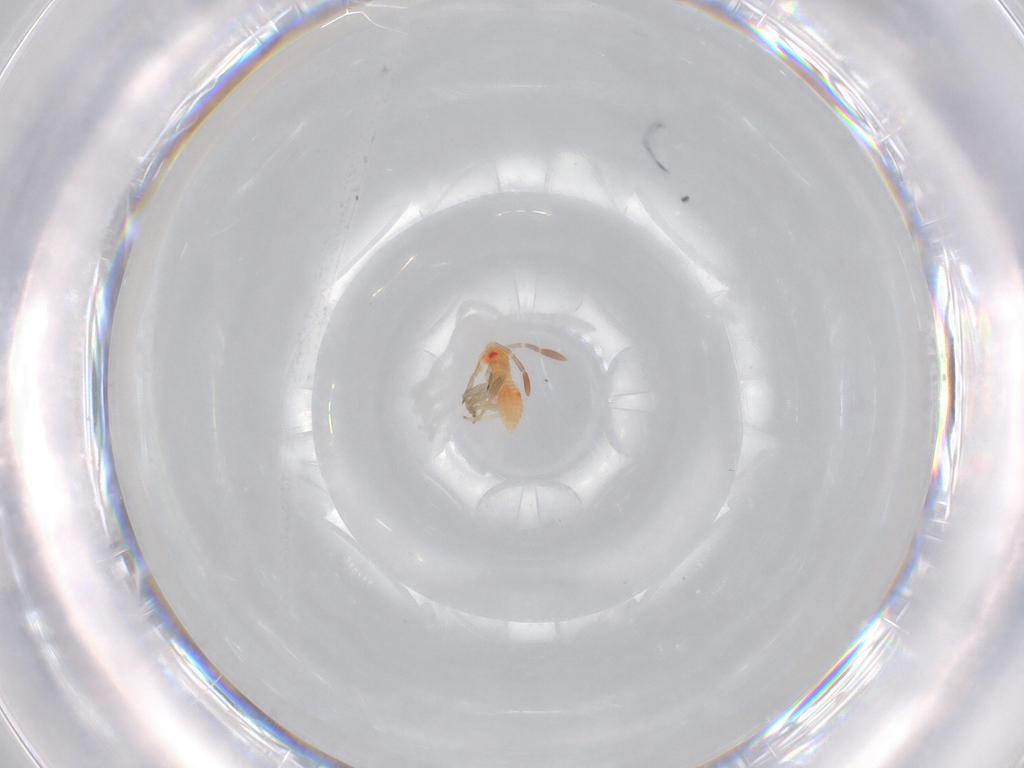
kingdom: Animalia
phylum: Arthropoda
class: Insecta
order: Hemiptera
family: Miridae
